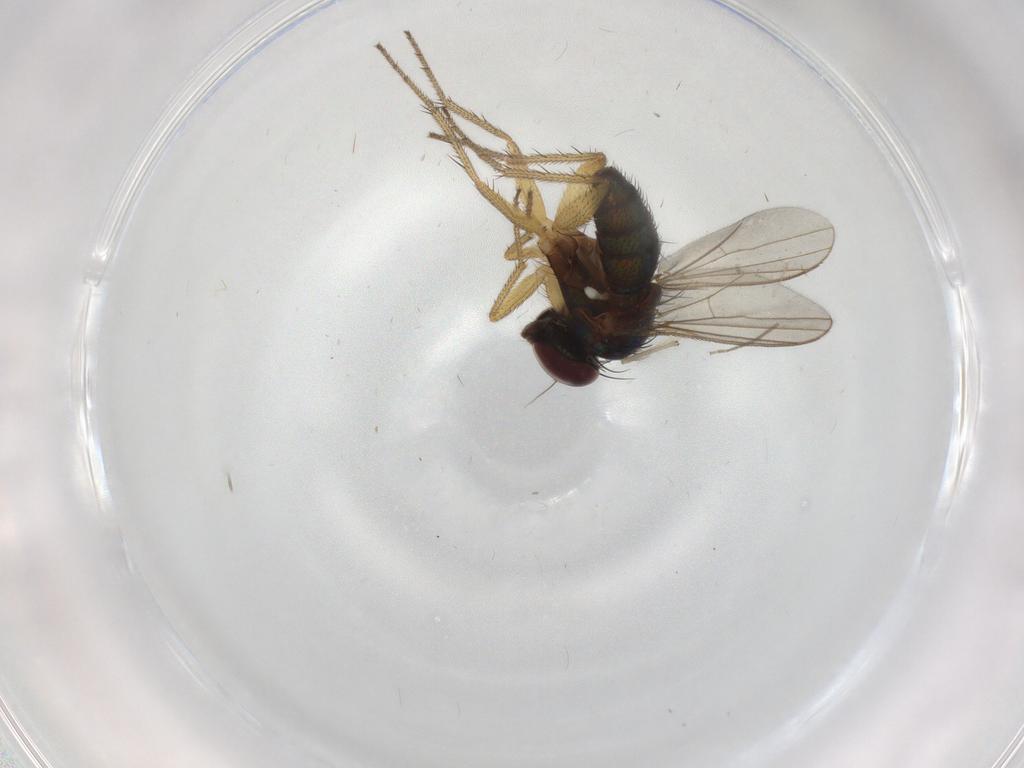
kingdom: Animalia
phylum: Arthropoda
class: Insecta
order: Diptera
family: Chironomidae
